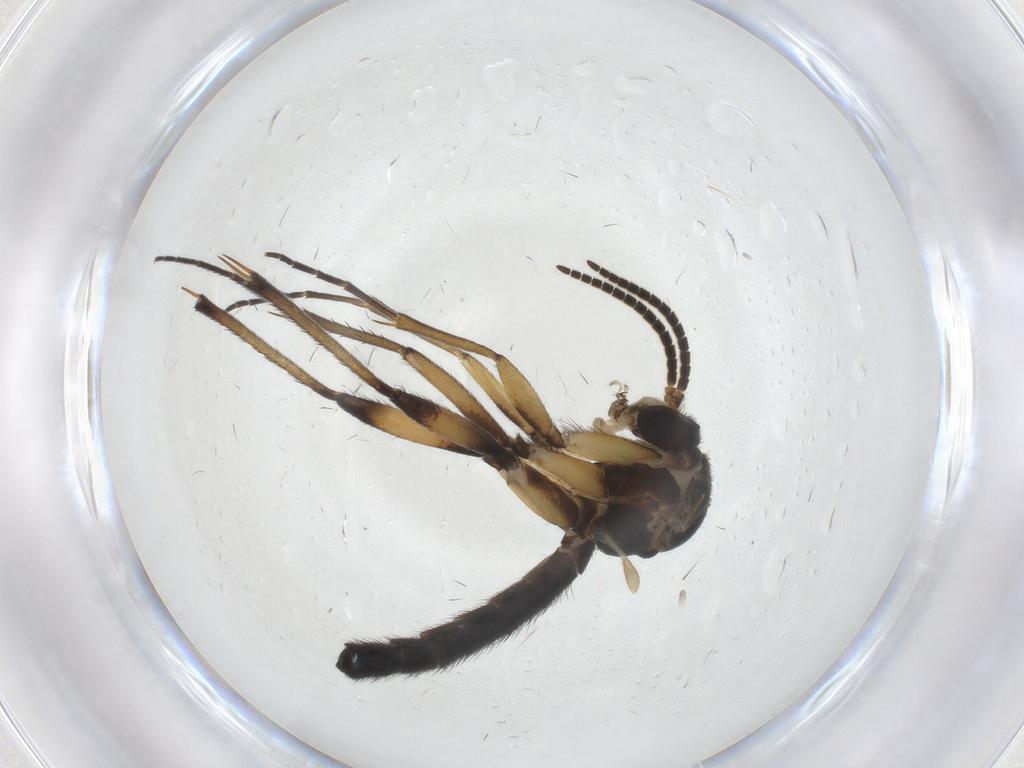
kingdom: Animalia
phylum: Arthropoda
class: Insecta
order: Diptera
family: Mycetophilidae
